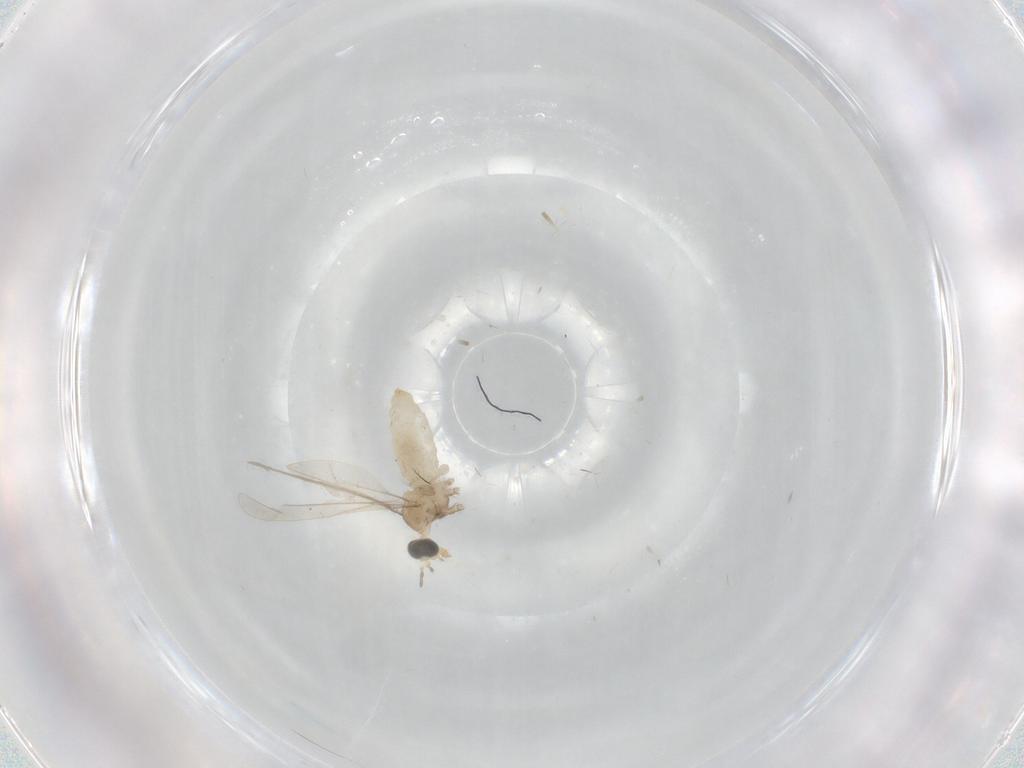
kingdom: Animalia
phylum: Arthropoda
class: Insecta
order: Diptera
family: Cecidomyiidae
